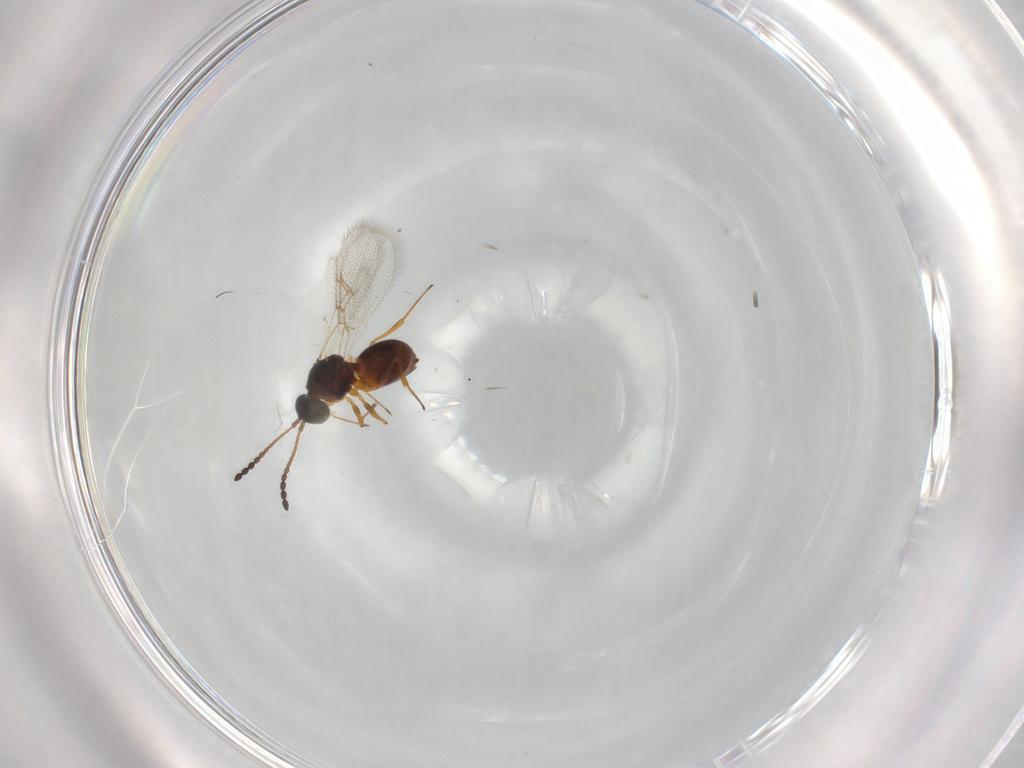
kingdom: Animalia
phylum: Arthropoda
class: Insecta
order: Hymenoptera
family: Figitidae
